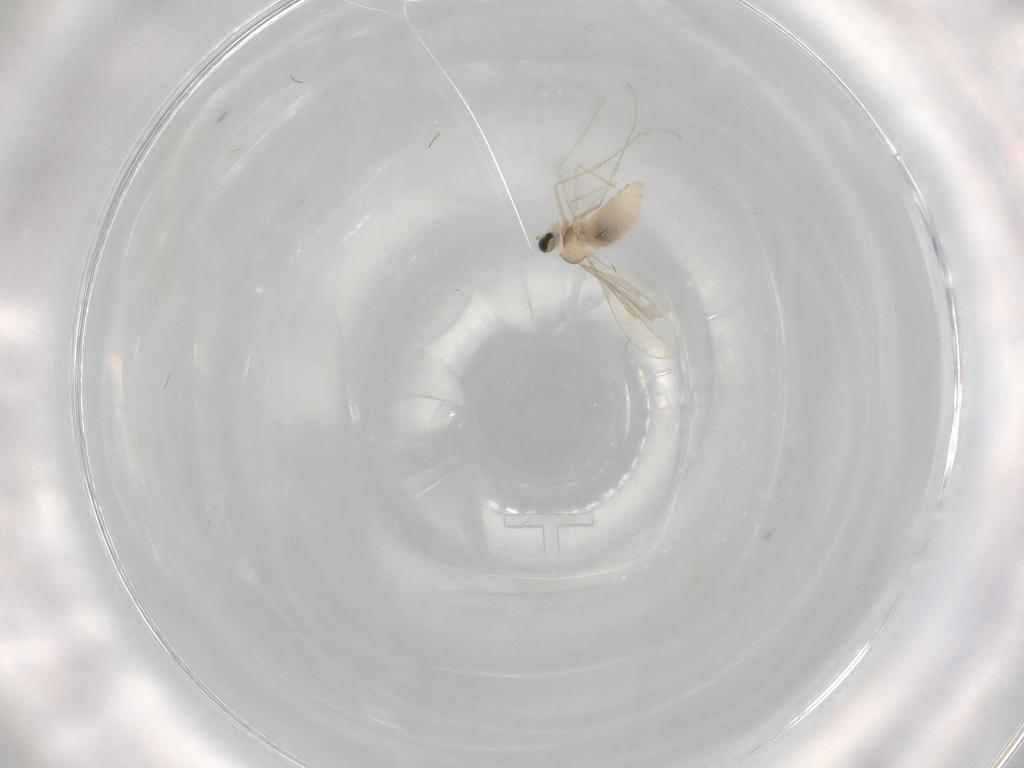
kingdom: Animalia
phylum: Arthropoda
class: Insecta
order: Diptera
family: Cecidomyiidae
